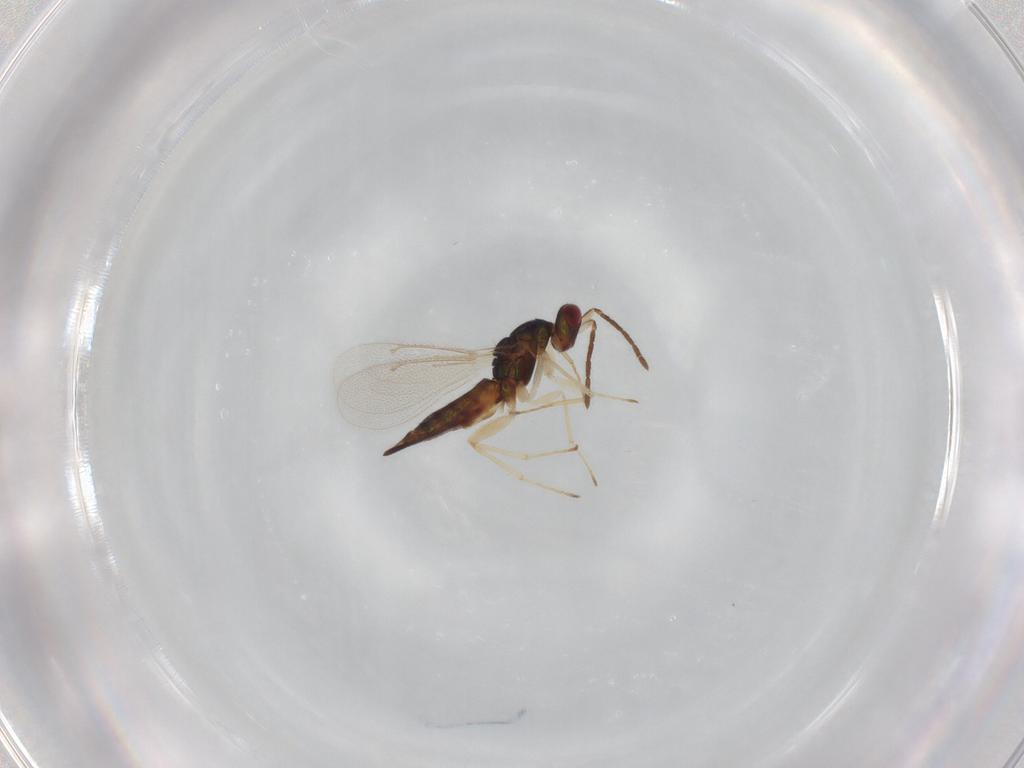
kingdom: Animalia
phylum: Arthropoda
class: Insecta
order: Hymenoptera
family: Eulophidae
